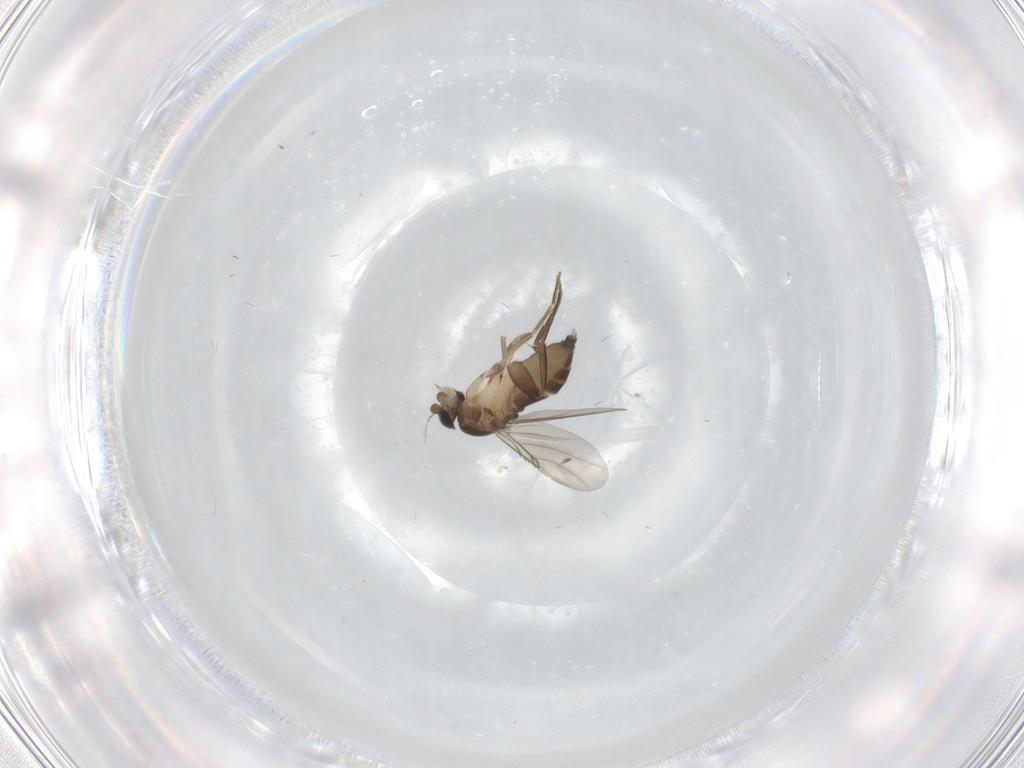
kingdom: Animalia
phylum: Arthropoda
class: Insecta
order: Diptera
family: Phoridae
